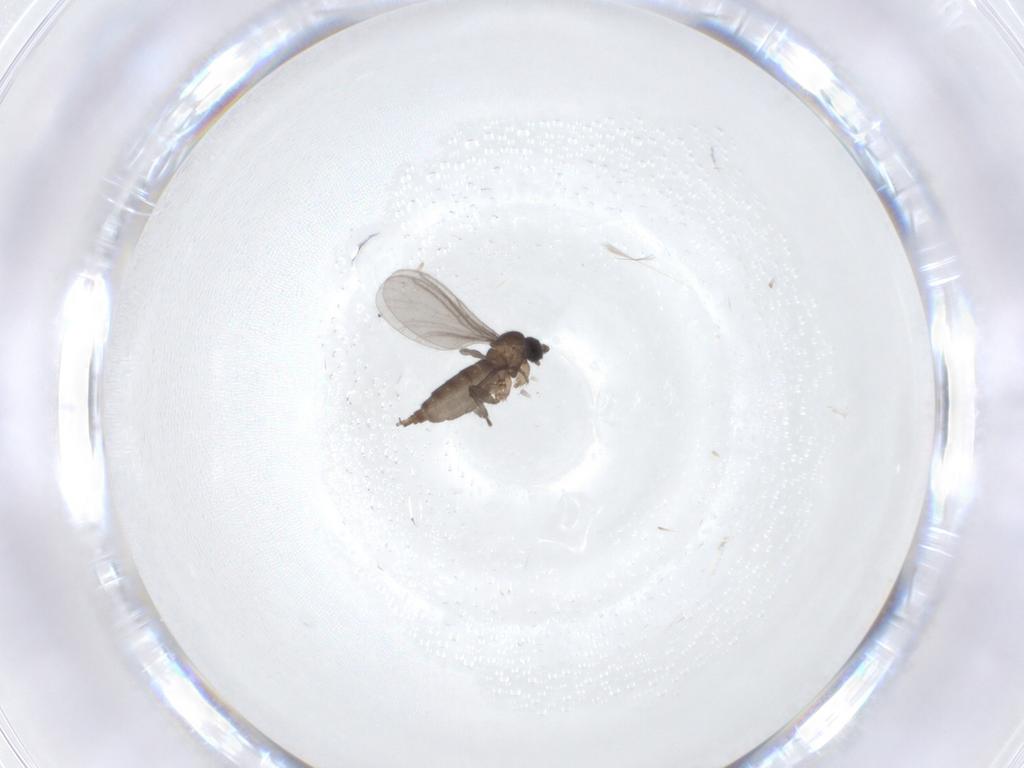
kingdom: Animalia
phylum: Arthropoda
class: Insecta
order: Diptera
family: Sciaridae
